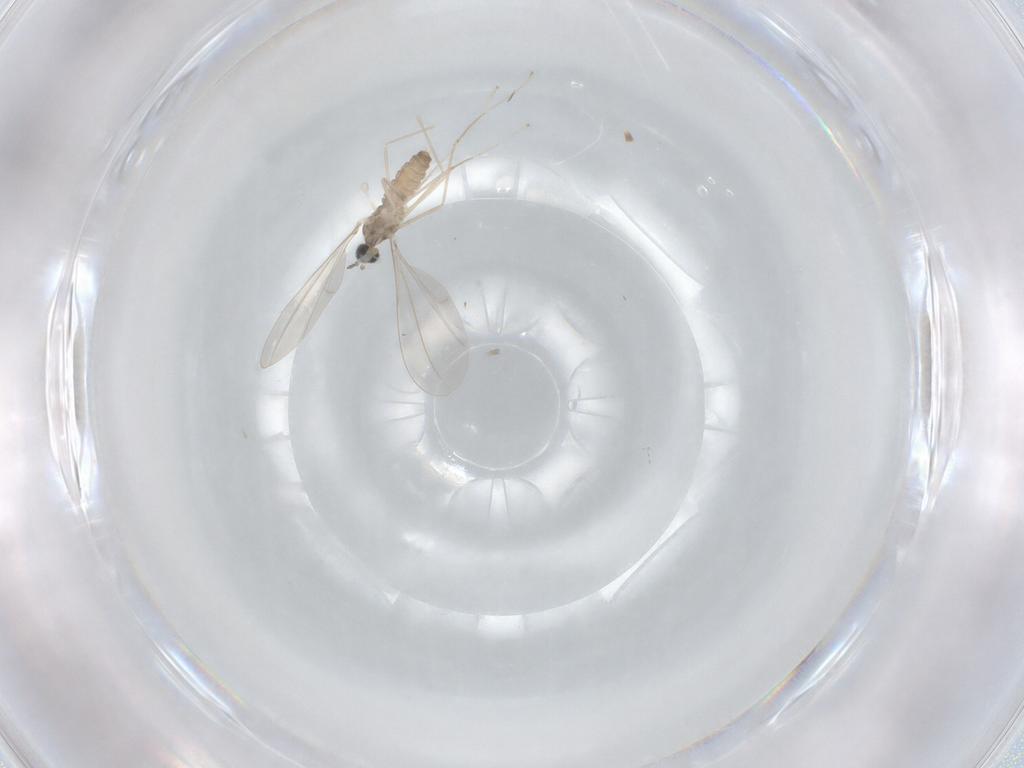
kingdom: Animalia
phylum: Arthropoda
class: Insecta
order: Diptera
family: Cecidomyiidae
